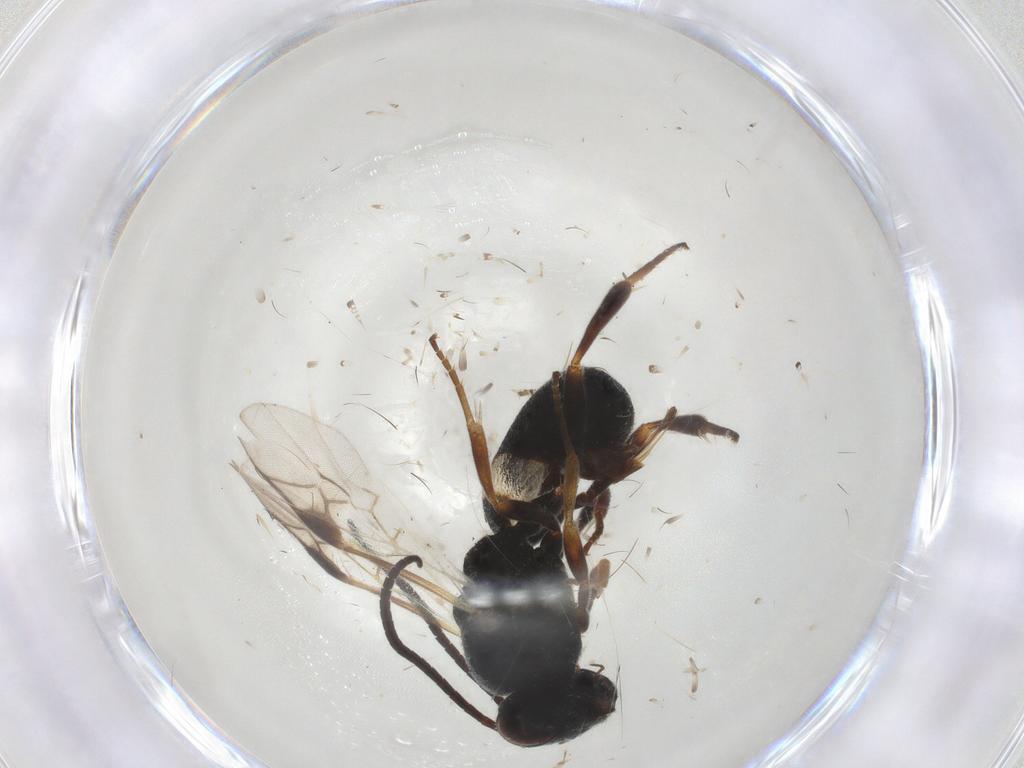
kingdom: Animalia
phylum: Arthropoda
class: Insecta
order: Hymenoptera
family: Braconidae
